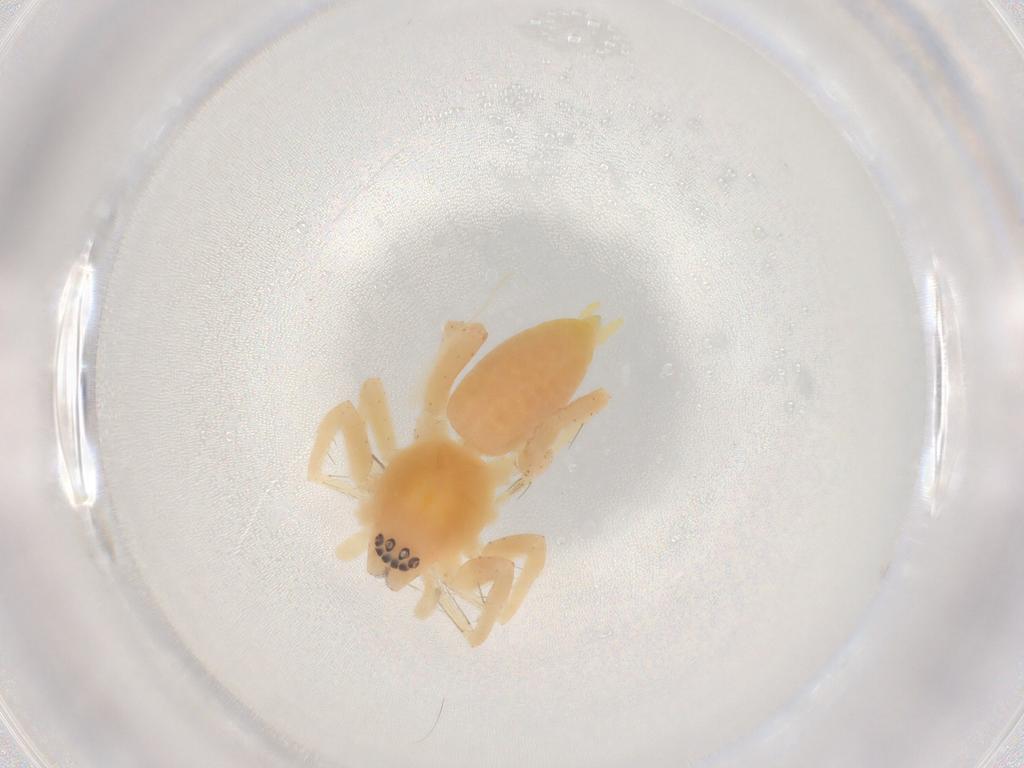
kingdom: Animalia
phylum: Arthropoda
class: Arachnida
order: Araneae
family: Anyphaenidae
